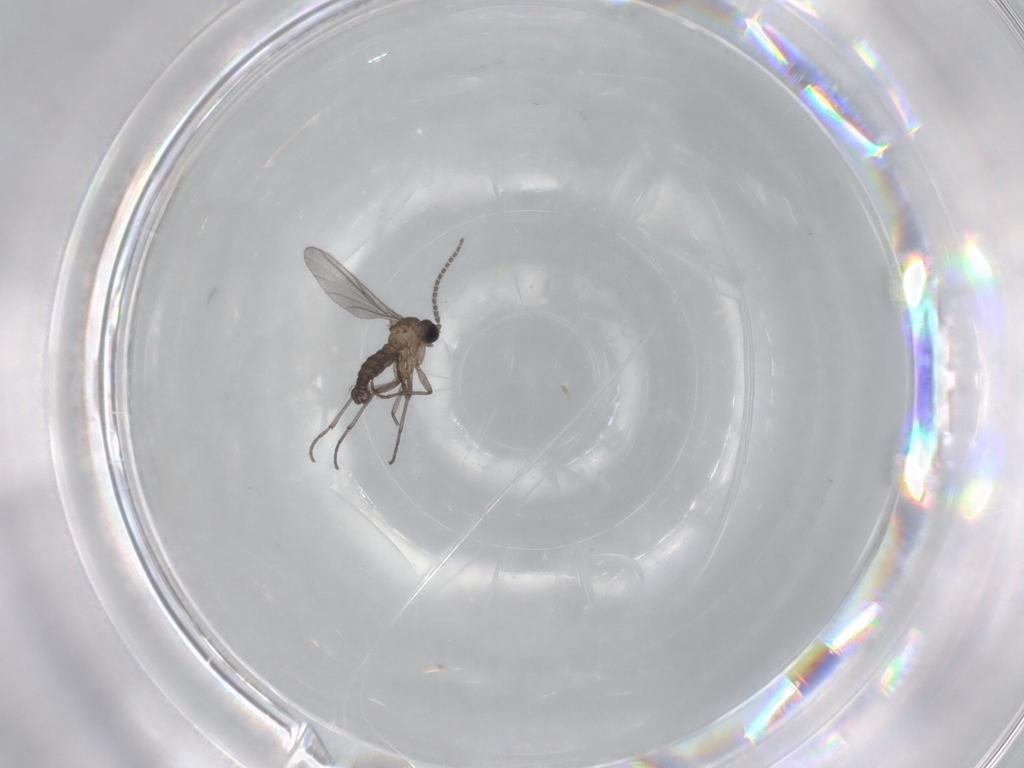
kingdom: Animalia
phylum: Arthropoda
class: Insecta
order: Diptera
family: Sciaridae
